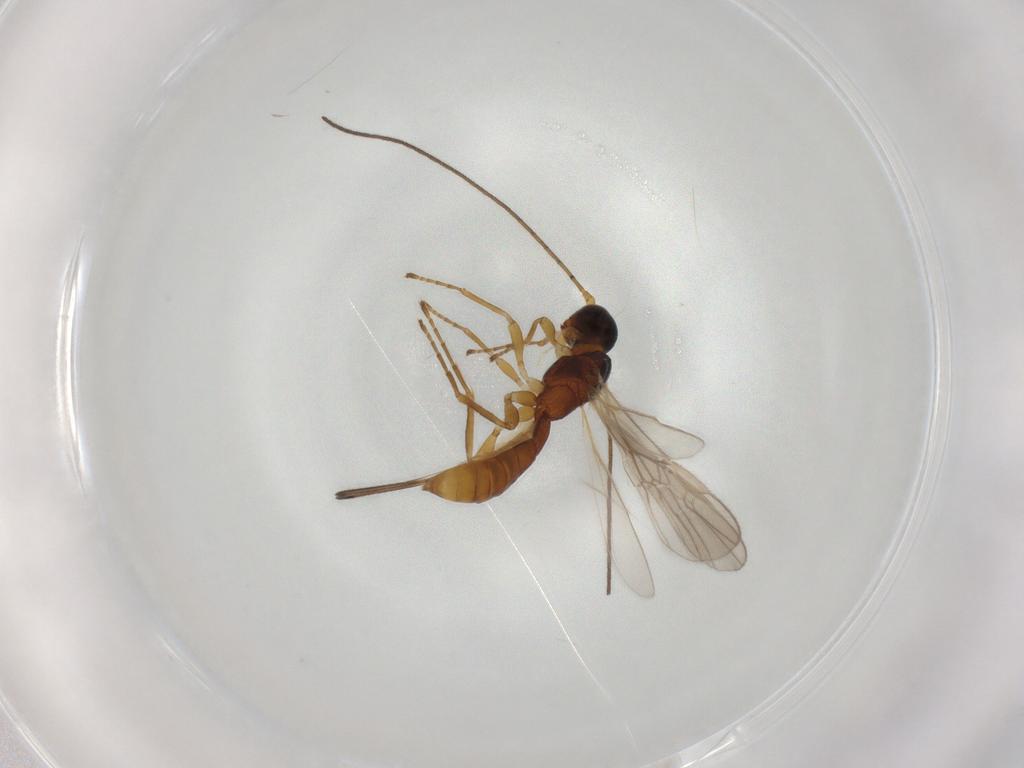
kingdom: Animalia
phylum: Arthropoda
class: Insecta
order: Hymenoptera
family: Braconidae
